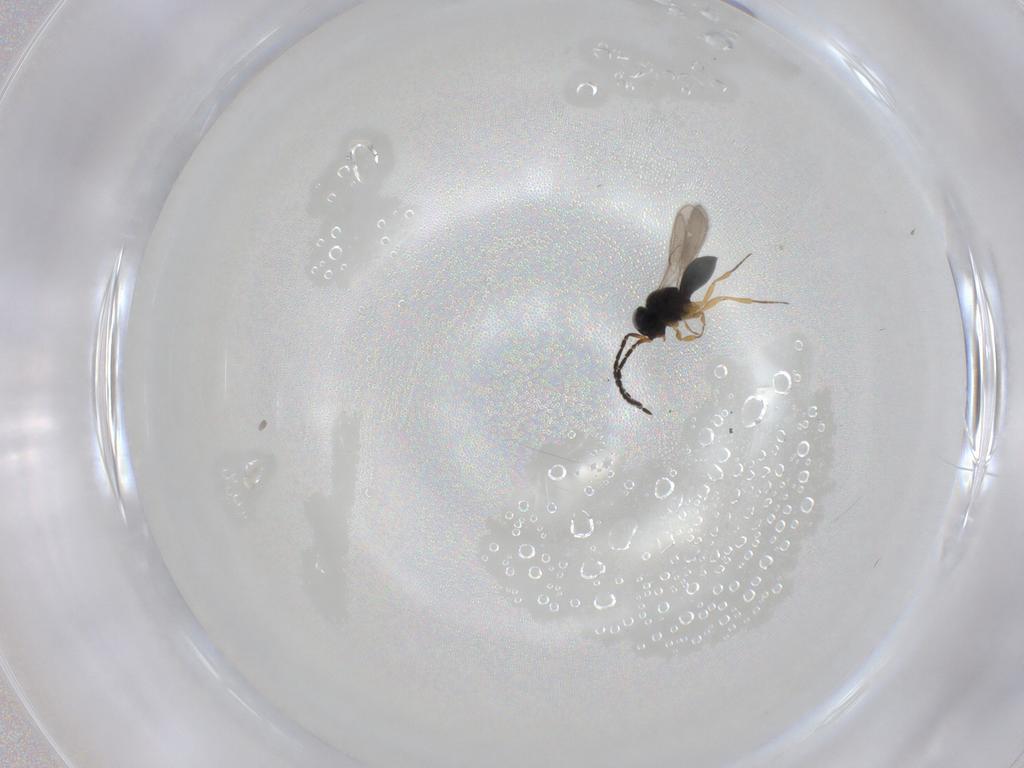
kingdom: Animalia
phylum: Arthropoda
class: Insecta
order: Hymenoptera
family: Scelionidae
